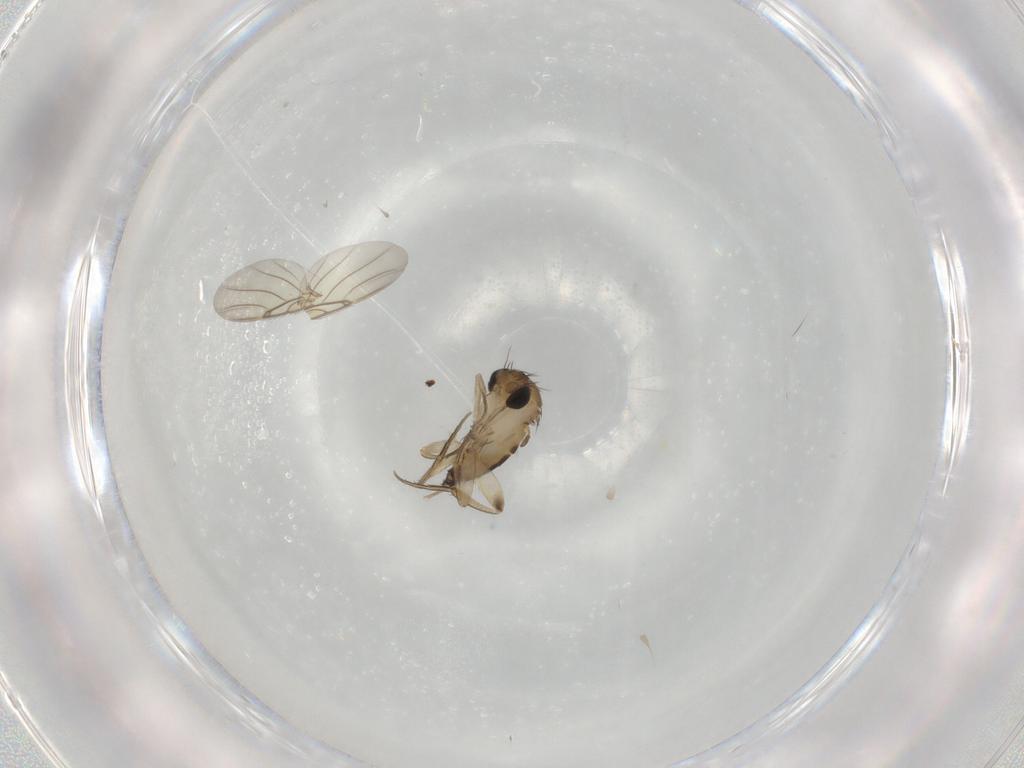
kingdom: Animalia
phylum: Arthropoda
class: Insecta
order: Diptera
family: Phoridae
